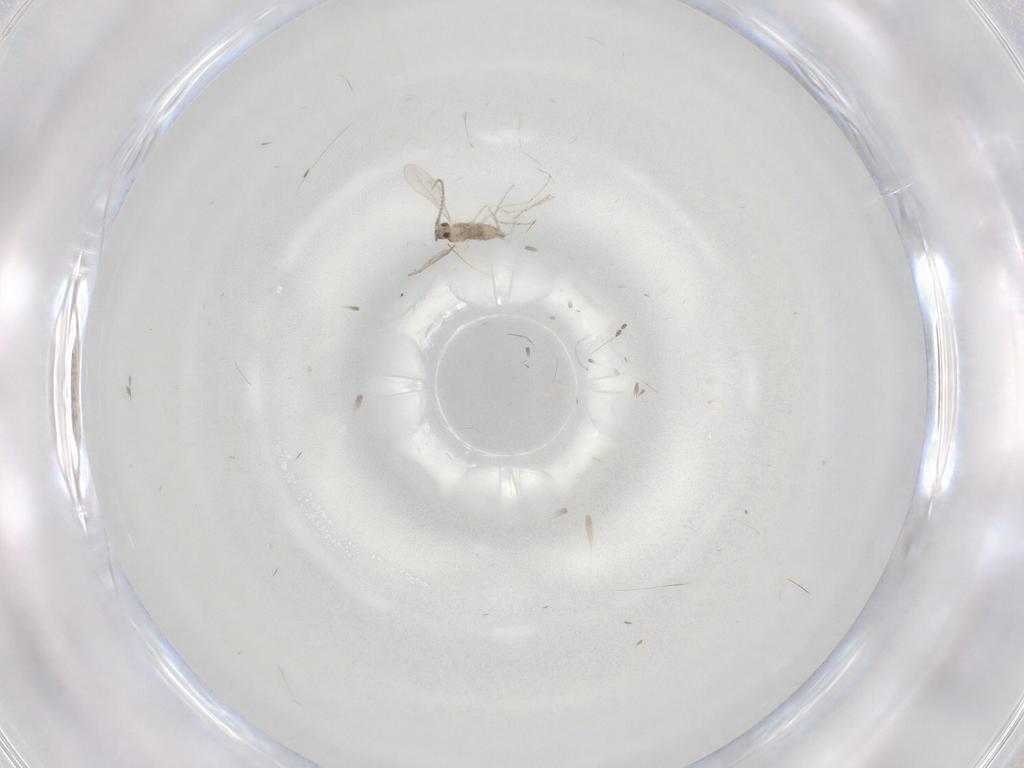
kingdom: Animalia
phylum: Arthropoda
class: Insecta
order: Diptera
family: Cecidomyiidae
